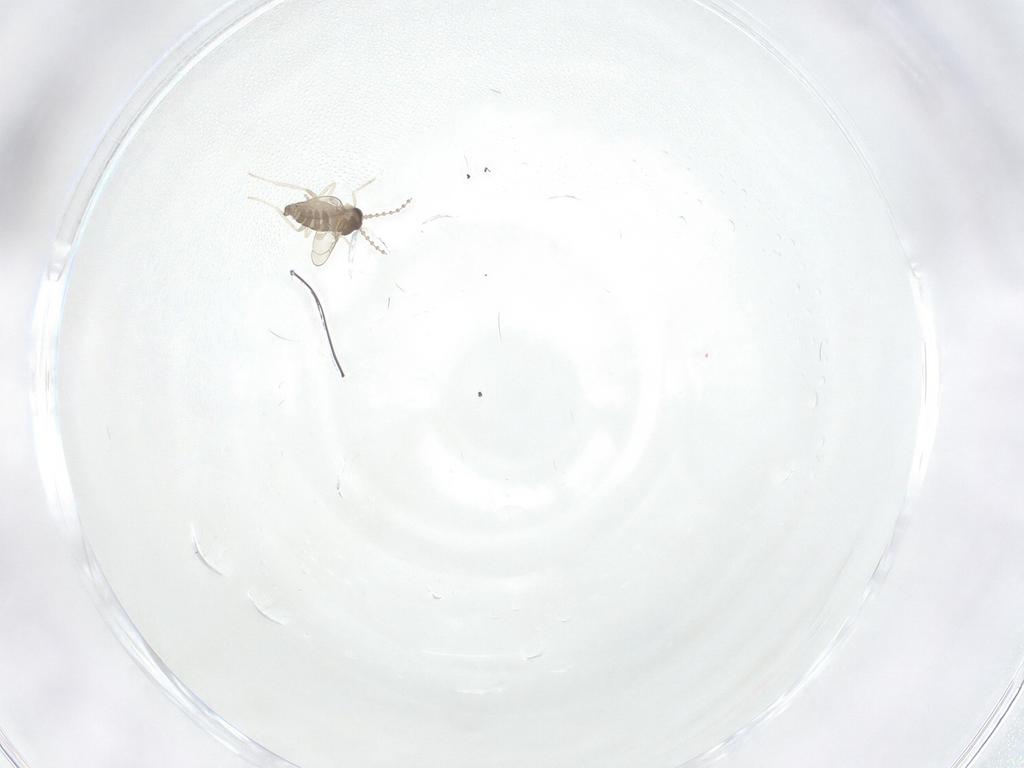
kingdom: Animalia
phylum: Arthropoda
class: Insecta
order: Diptera
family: Cecidomyiidae
